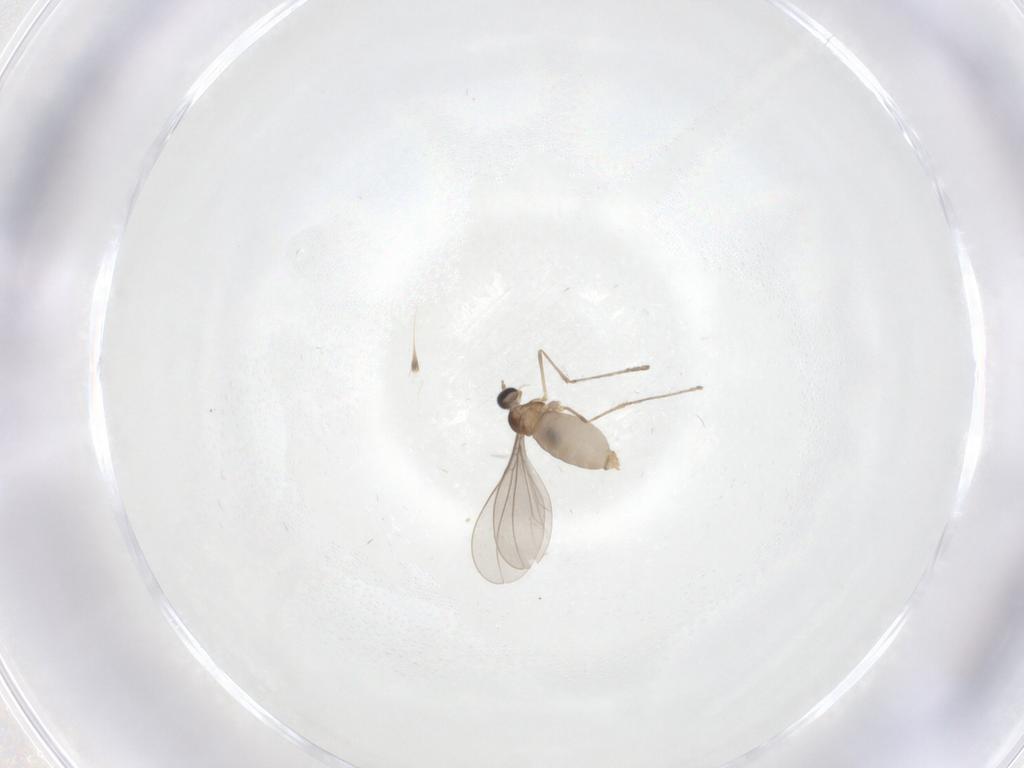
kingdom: Animalia
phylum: Arthropoda
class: Insecta
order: Diptera
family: Cecidomyiidae
